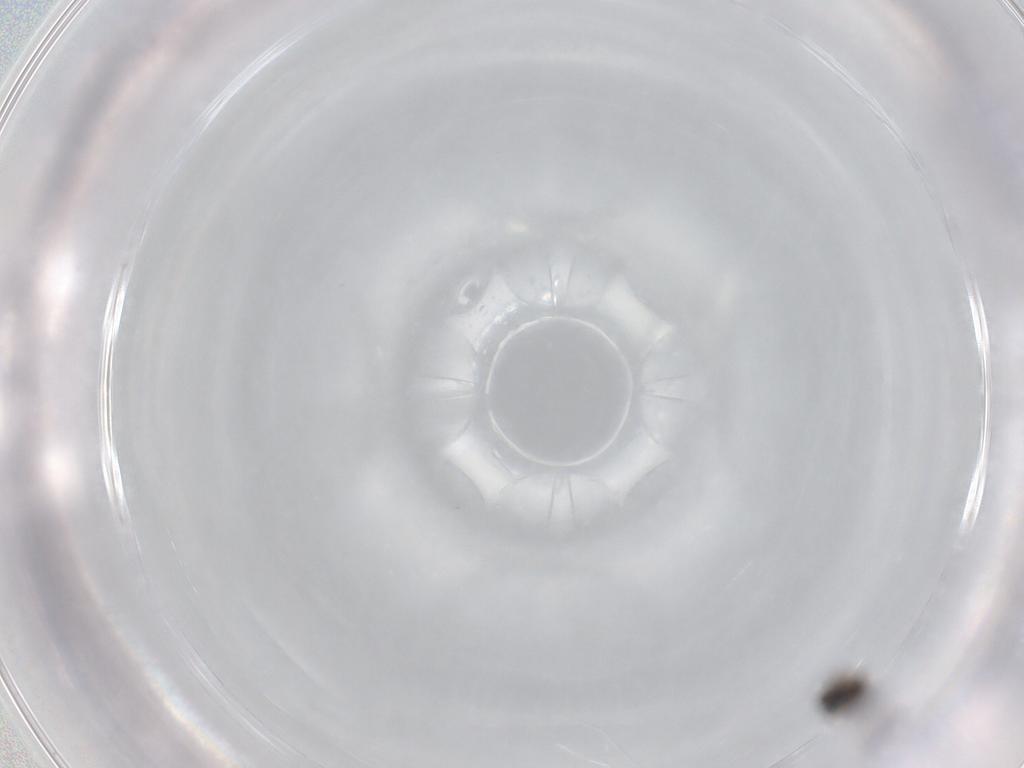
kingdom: Animalia
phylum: Arthropoda
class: Insecta
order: Hymenoptera
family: Scelionidae
